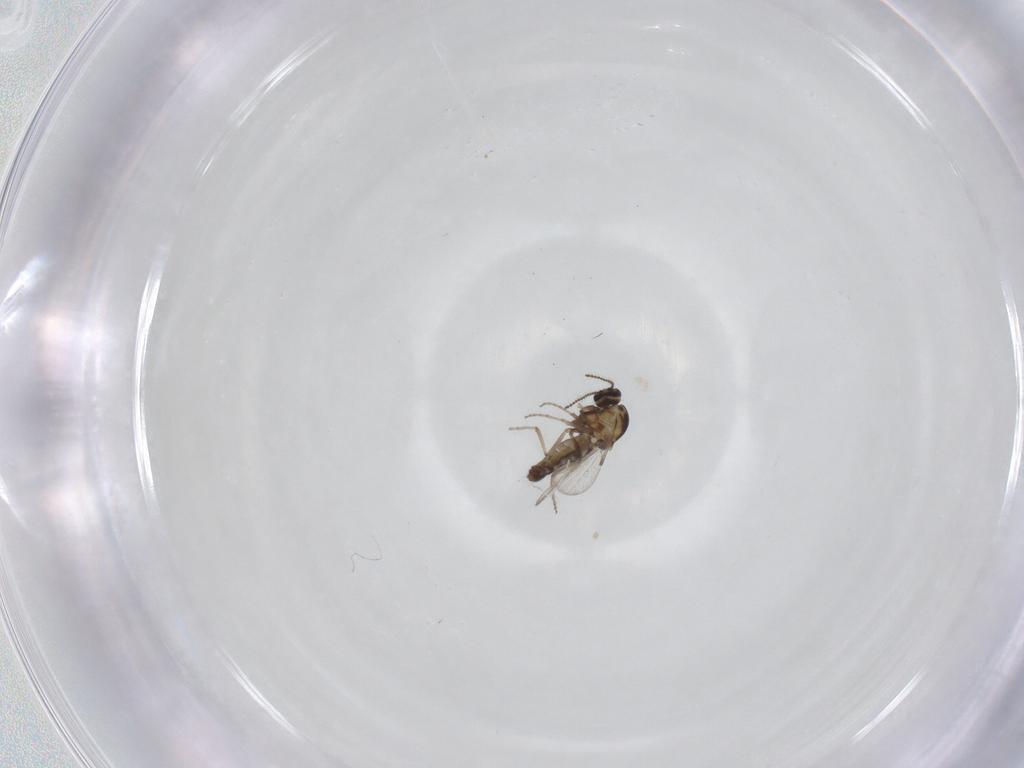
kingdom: Animalia
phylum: Arthropoda
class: Insecta
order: Diptera
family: Ceratopogonidae
